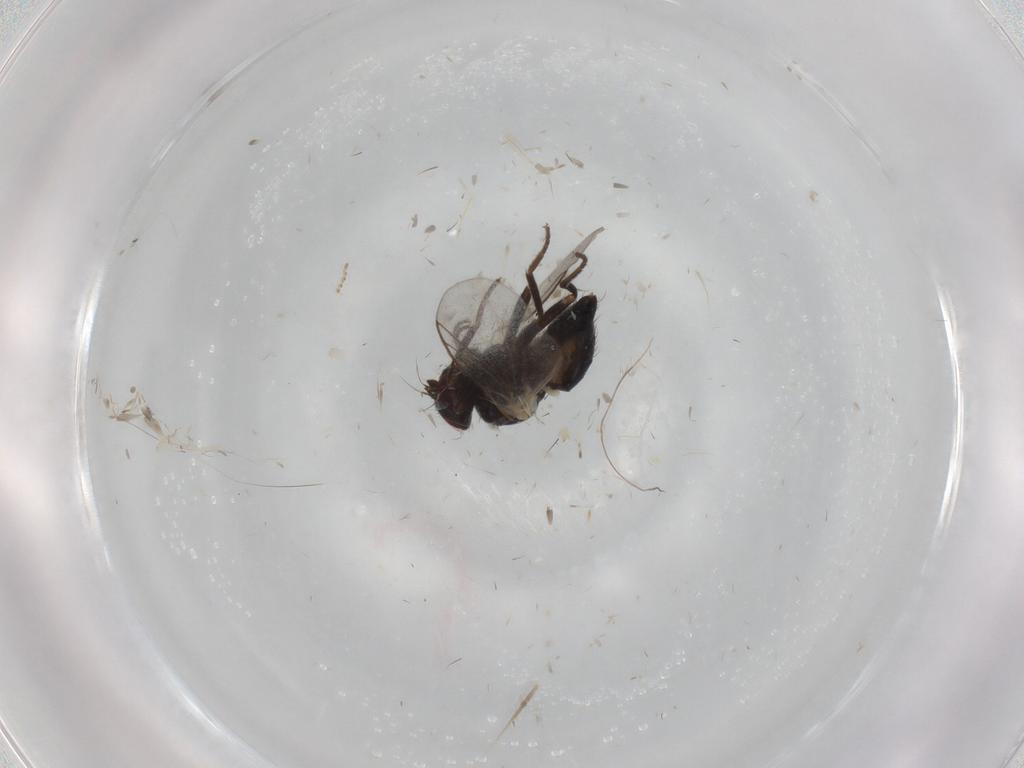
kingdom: Animalia
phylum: Arthropoda
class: Insecta
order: Diptera
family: Agromyzidae
